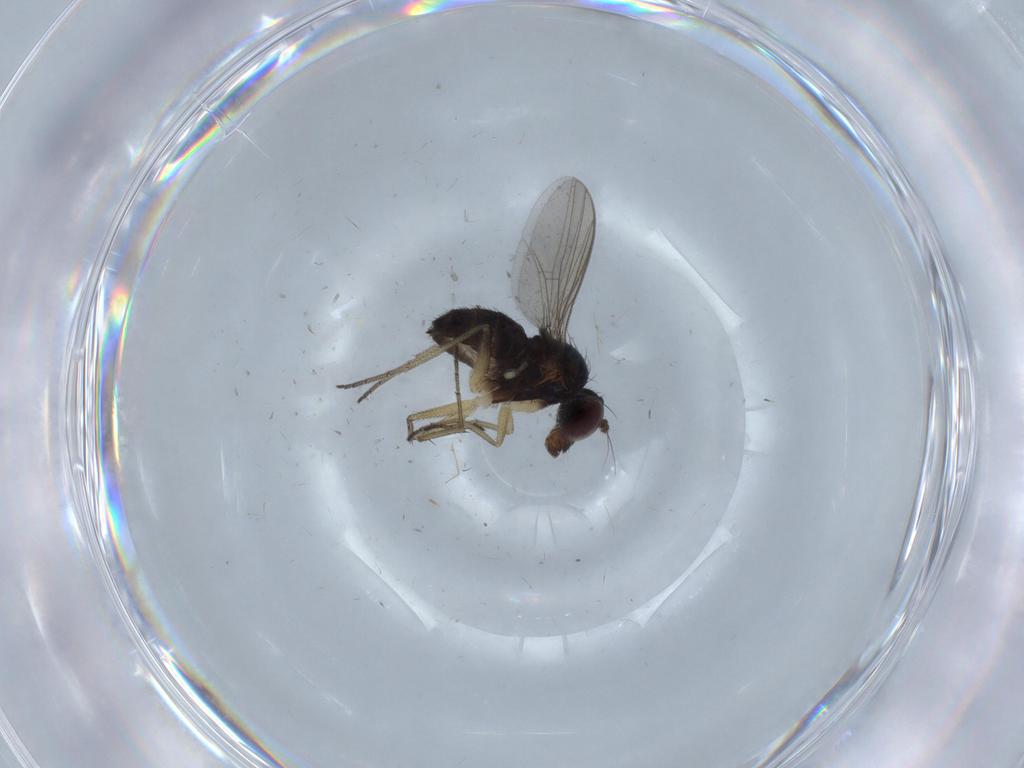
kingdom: Animalia
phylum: Arthropoda
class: Insecta
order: Diptera
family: Dolichopodidae
